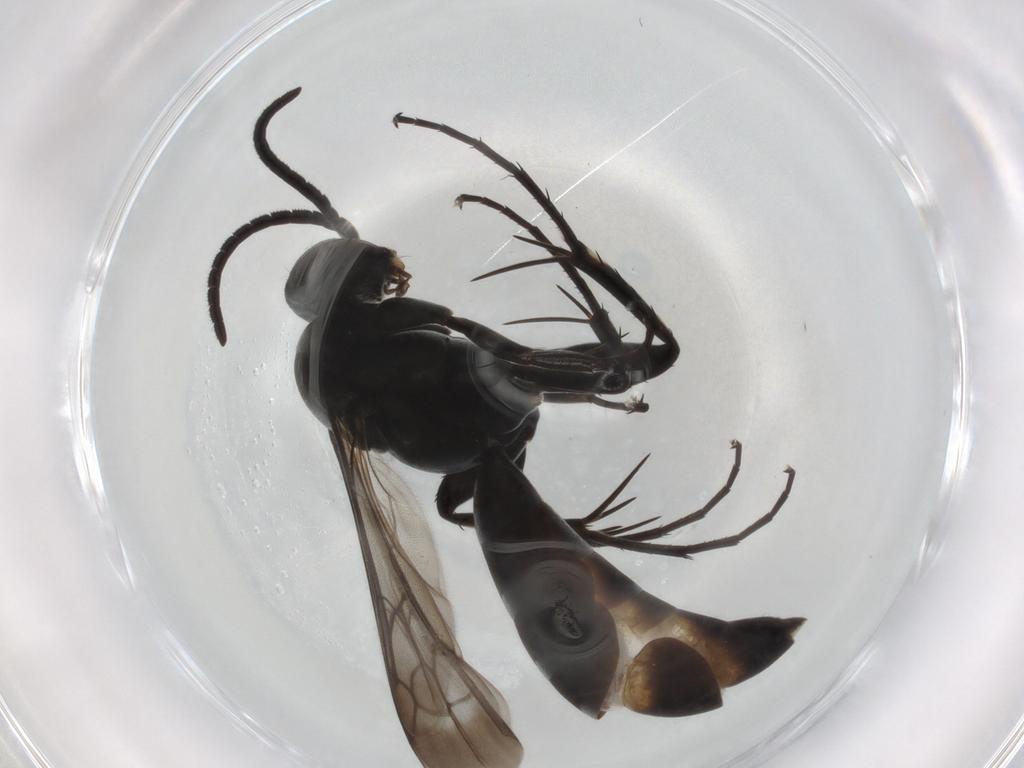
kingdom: Animalia
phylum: Arthropoda
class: Insecta
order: Hymenoptera
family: Pompilidae
